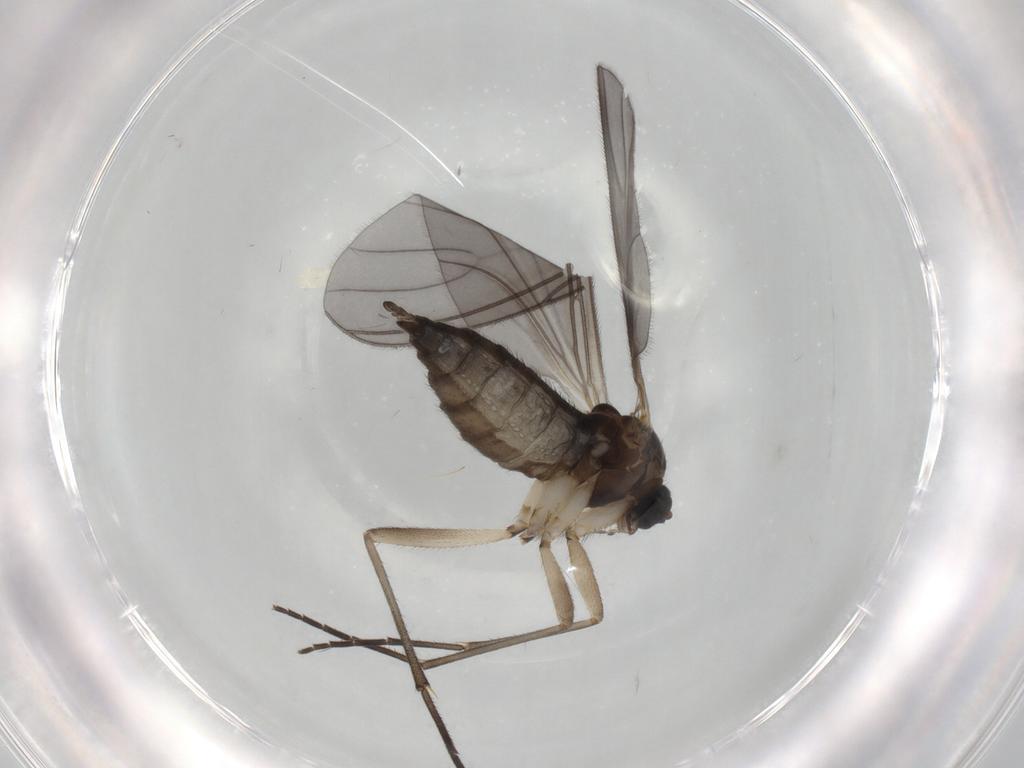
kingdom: Animalia
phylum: Arthropoda
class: Insecta
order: Diptera
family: Sciaridae
